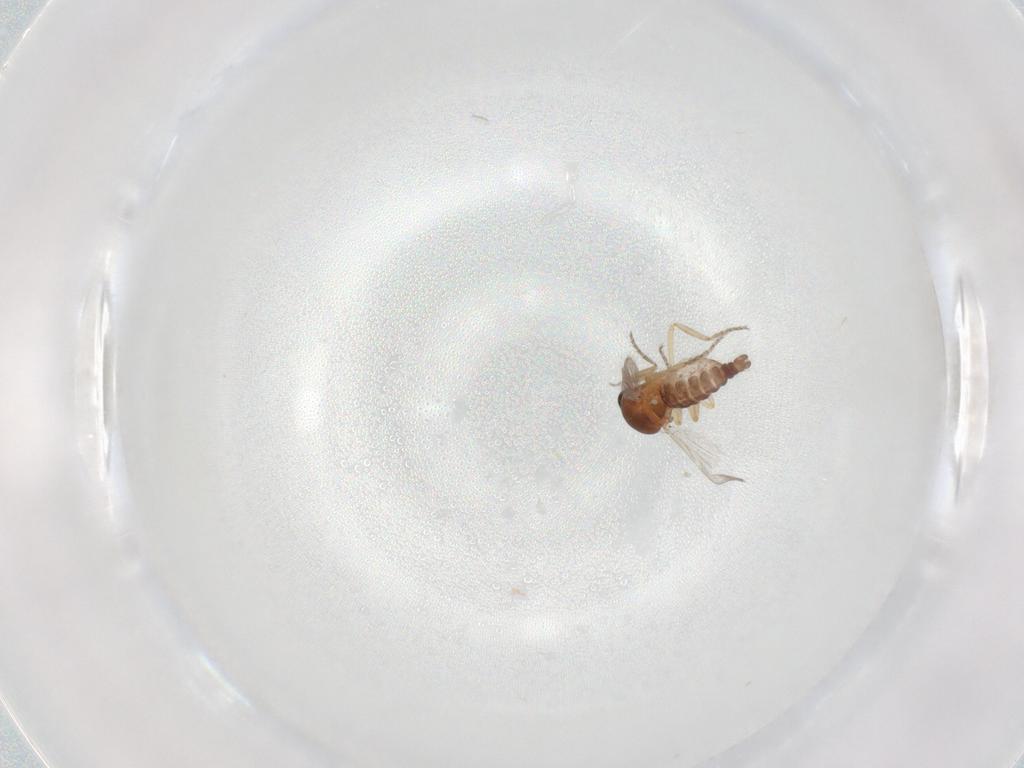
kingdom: Animalia
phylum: Arthropoda
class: Insecta
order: Diptera
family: Ceratopogonidae
